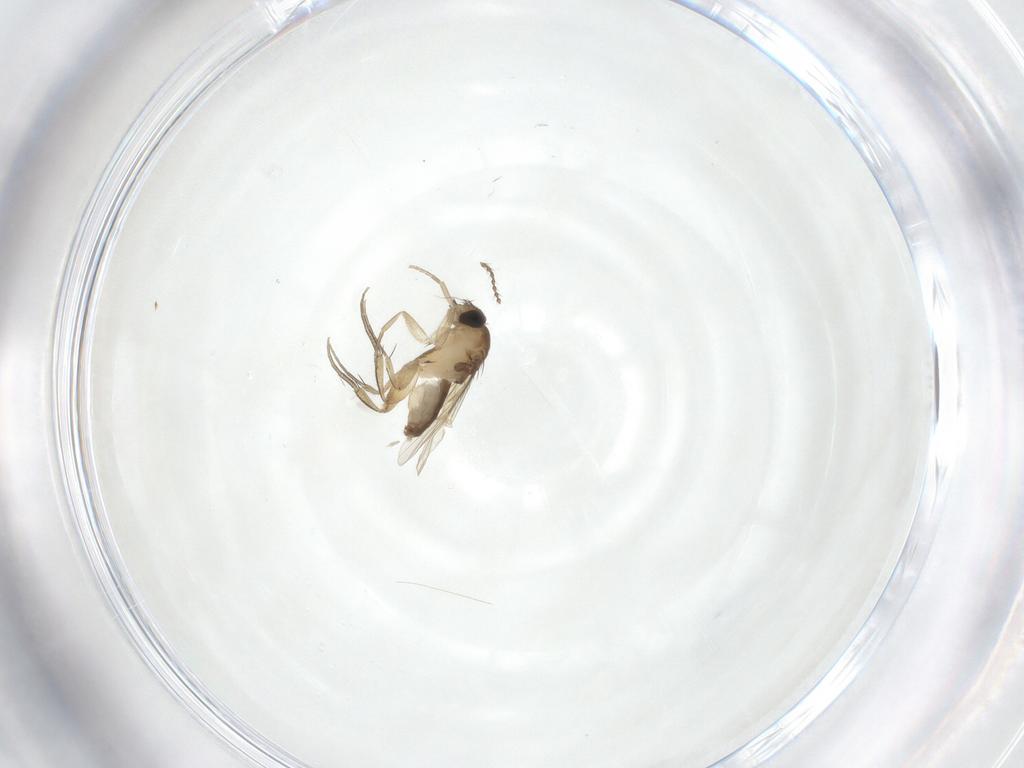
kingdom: Animalia
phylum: Arthropoda
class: Insecta
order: Diptera
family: Phoridae
